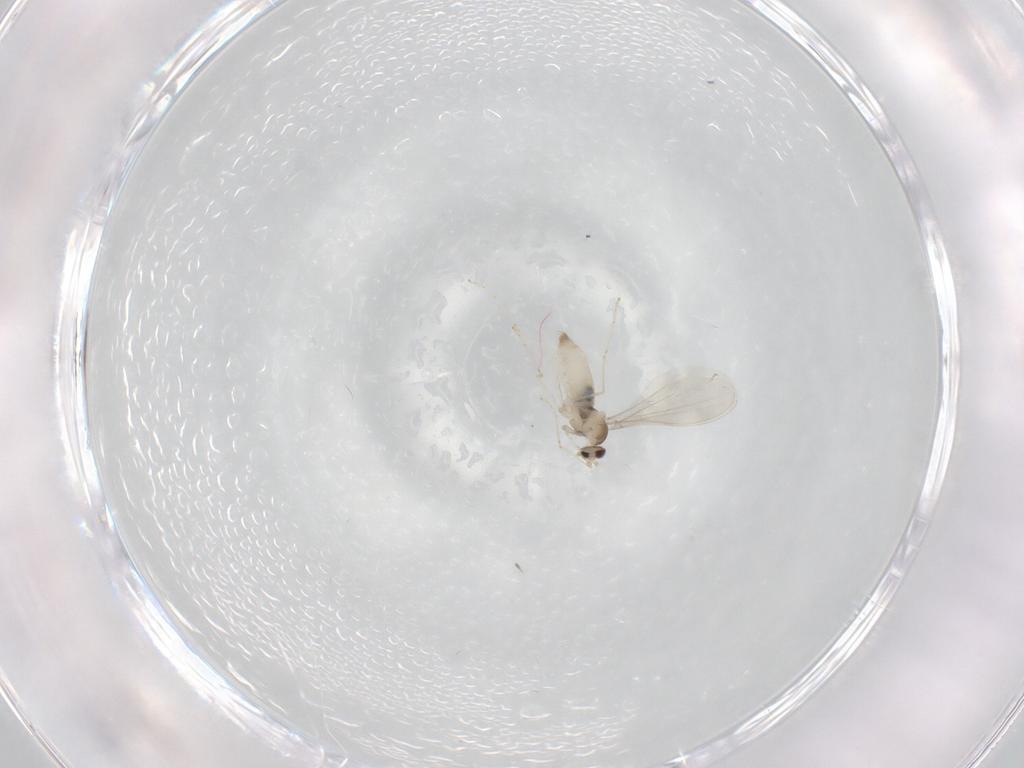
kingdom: Animalia
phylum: Arthropoda
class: Insecta
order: Diptera
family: Cecidomyiidae
